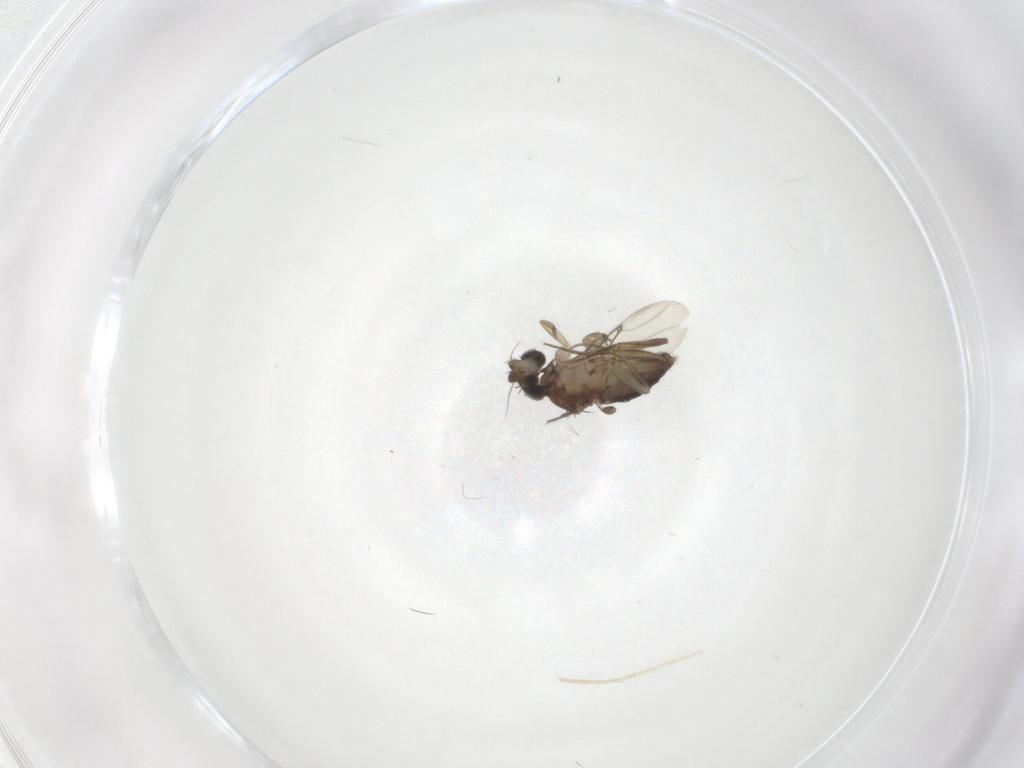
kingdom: Animalia
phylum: Arthropoda
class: Insecta
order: Diptera
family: Phoridae
